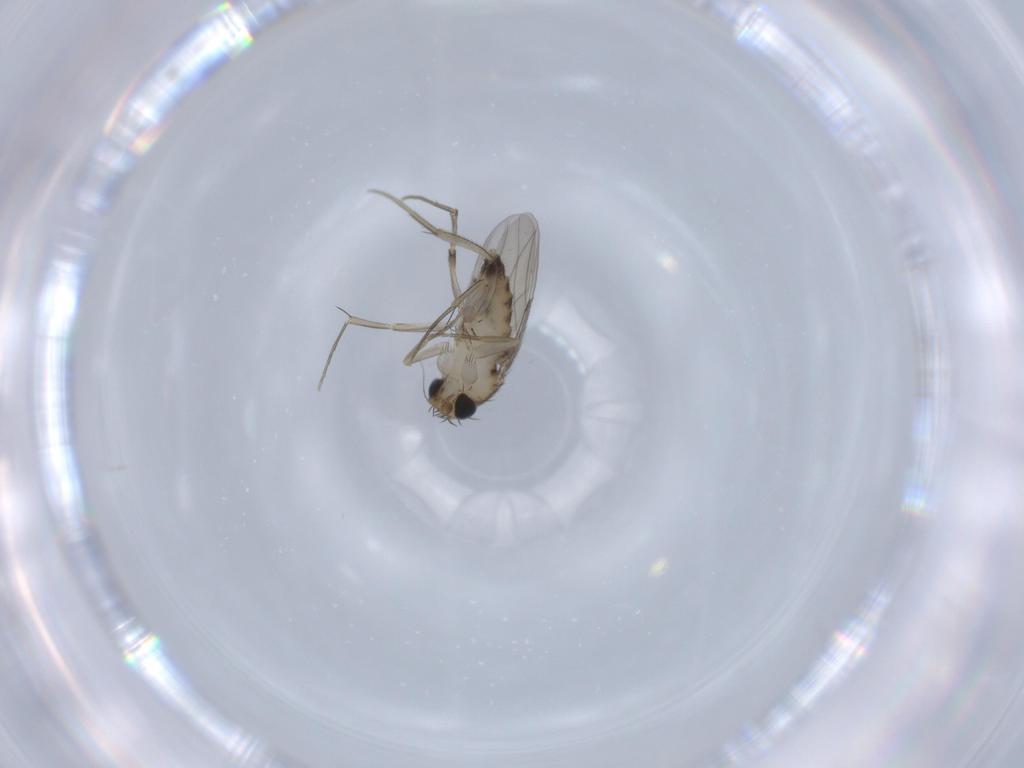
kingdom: Animalia
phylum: Arthropoda
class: Insecta
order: Diptera
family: Phoridae
